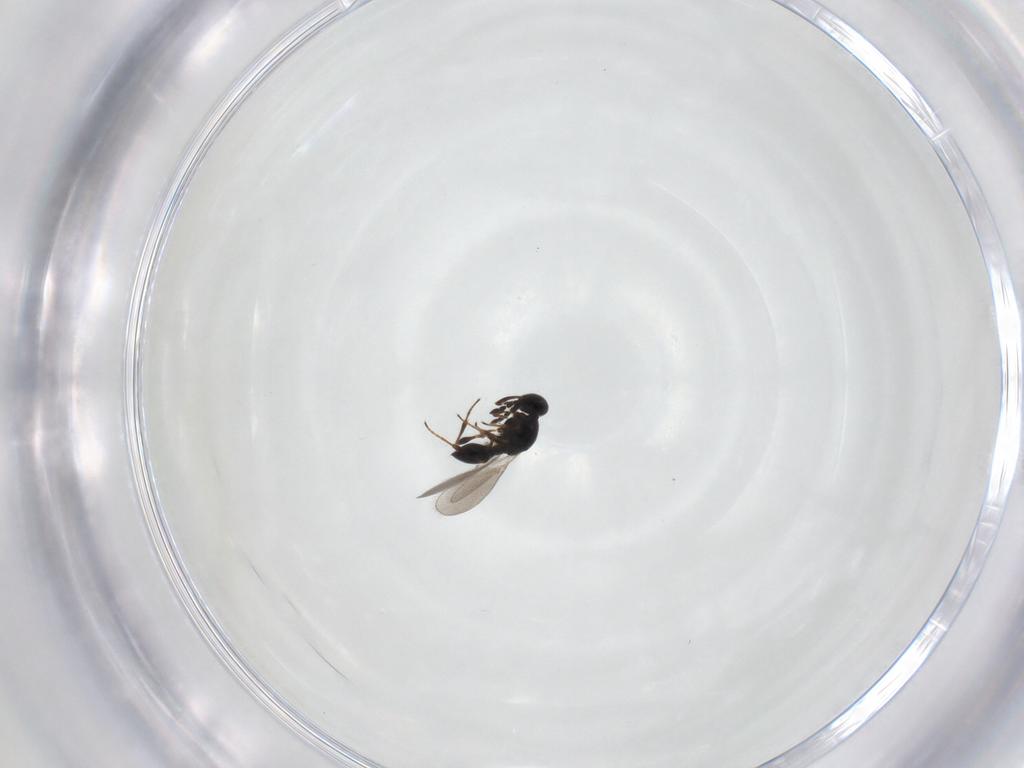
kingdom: Animalia
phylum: Arthropoda
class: Insecta
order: Hymenoptera
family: Platygastridae
